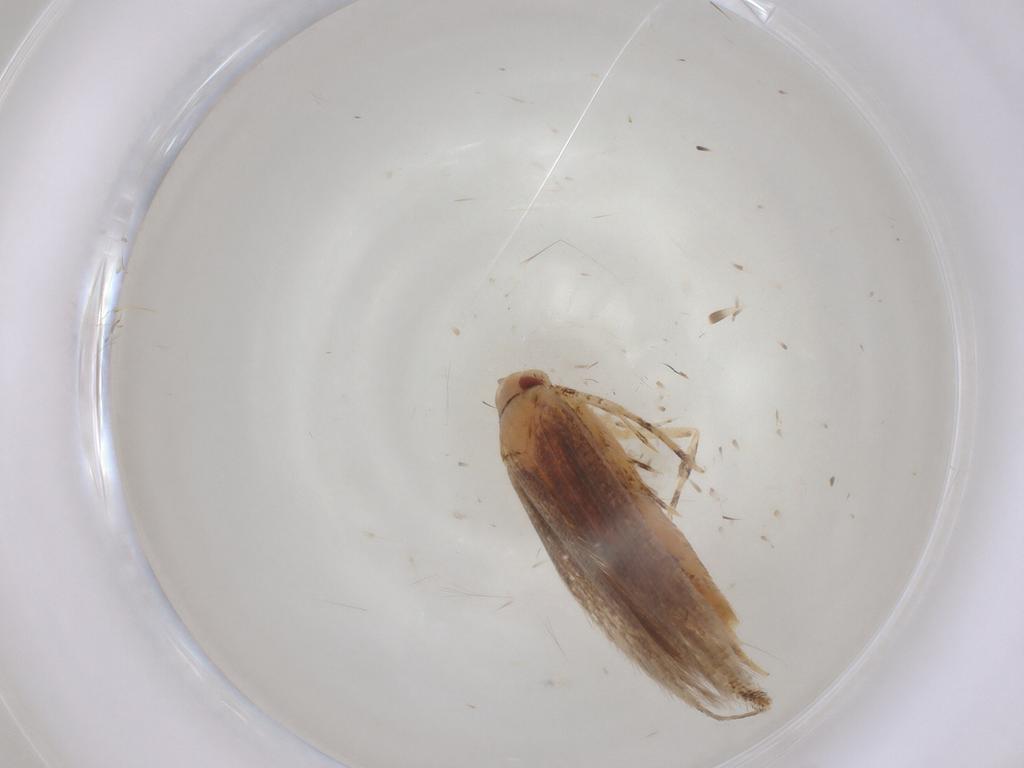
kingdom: Animalia
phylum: Arthropoda
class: Insecta
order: Lepidoptera
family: Cosmopterigidae
